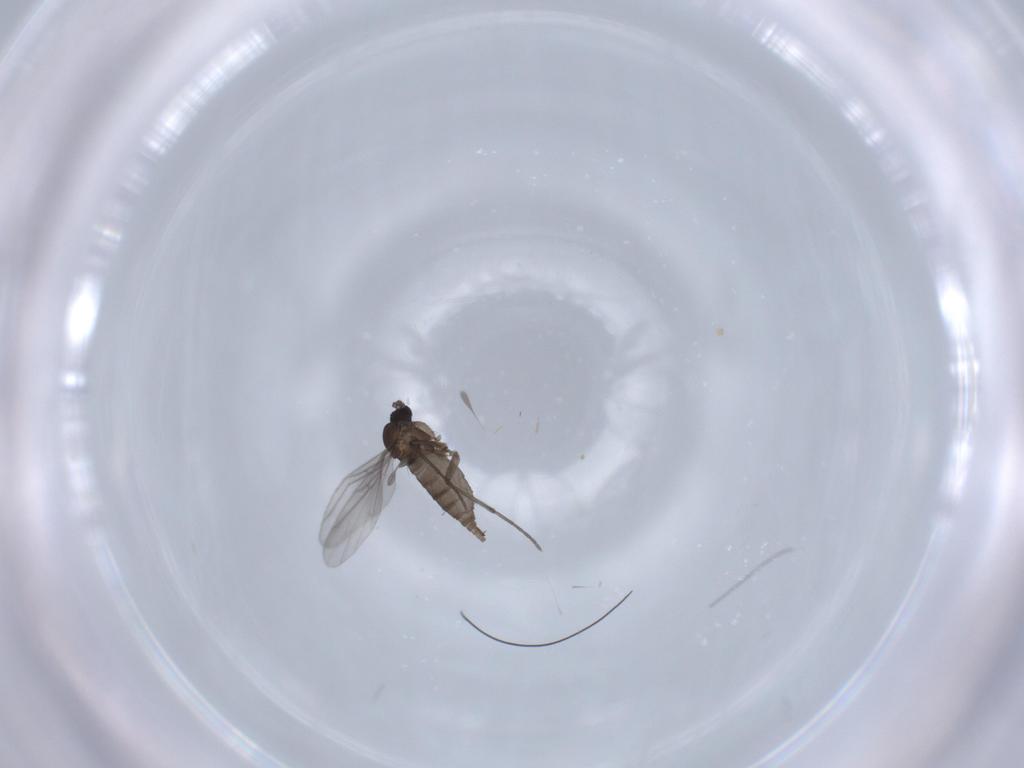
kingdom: Animalia
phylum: Arthropoda
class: Insecta
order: Diptera
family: Sciaridae
